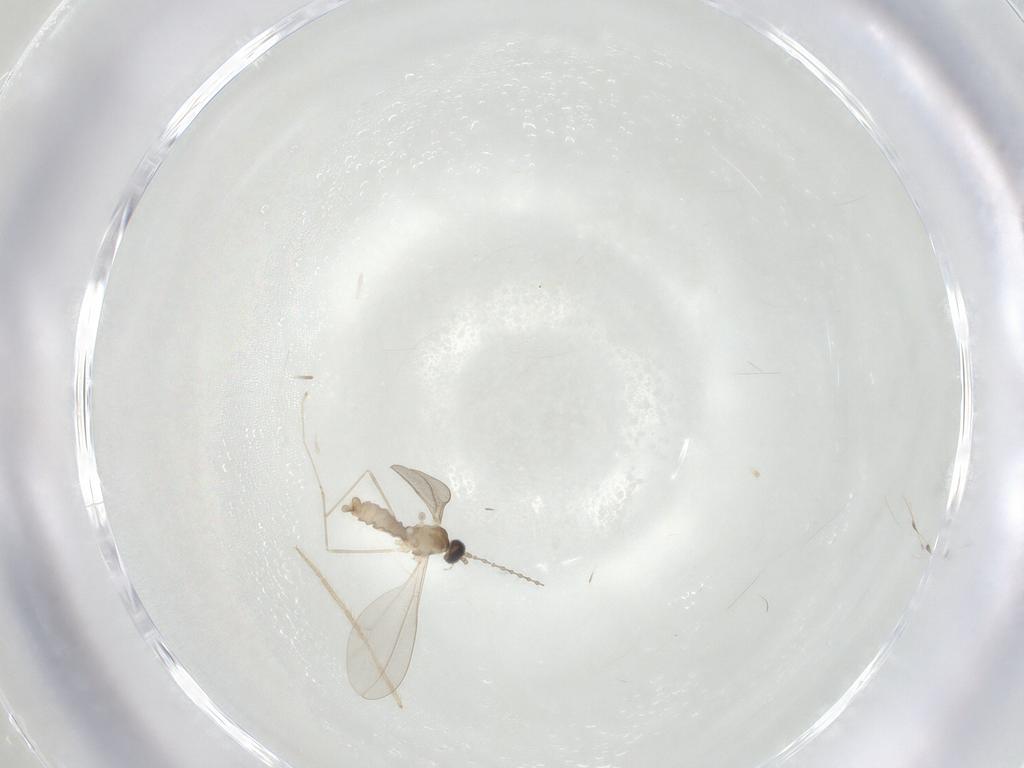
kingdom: Animalia
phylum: Arthropoda
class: Insecta
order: Diptera
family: Cecidomyiidae
